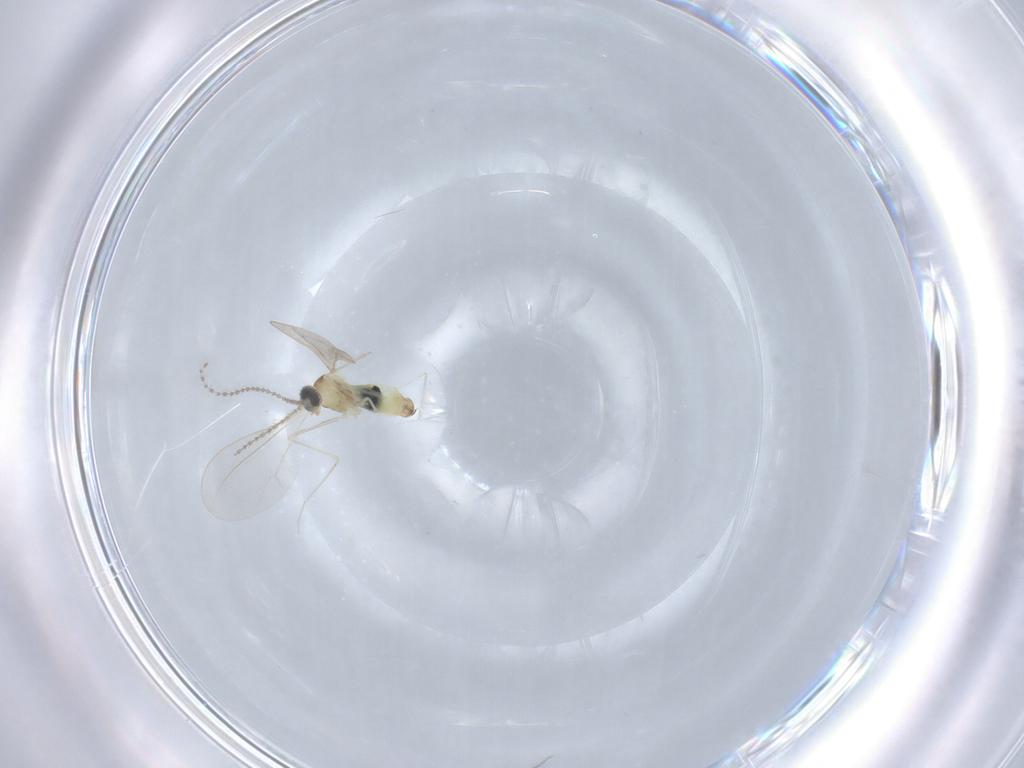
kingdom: Animalia
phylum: Arthropoda
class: Insecta
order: Diptera
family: Cecidomyiidae
